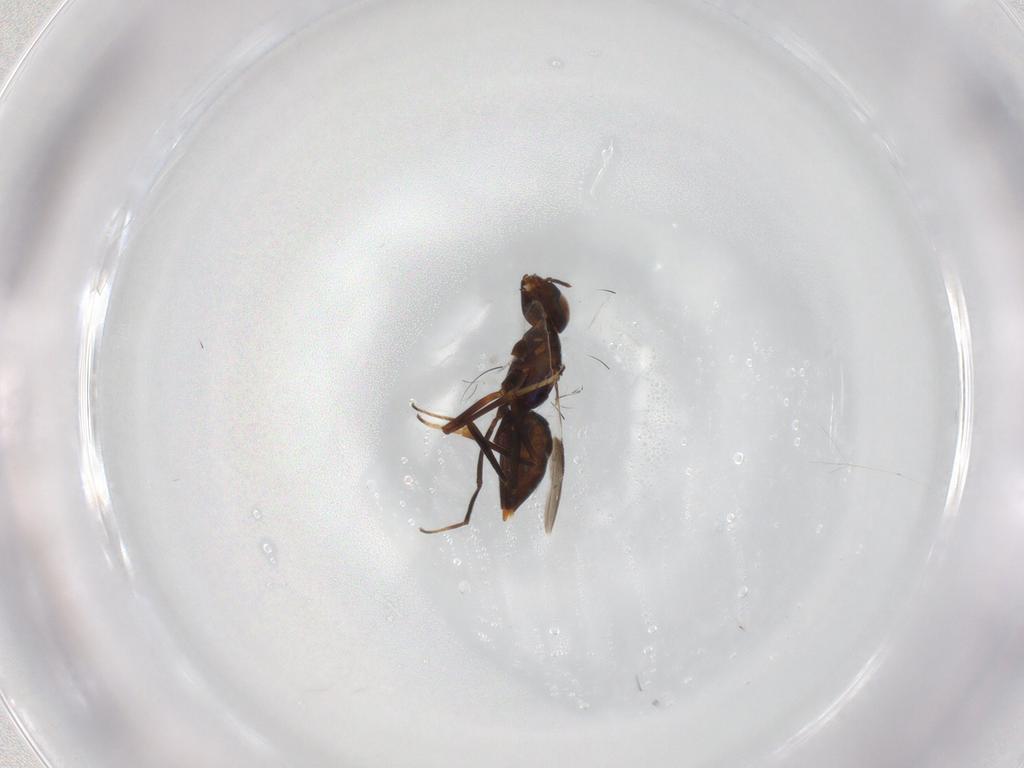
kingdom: Animalia
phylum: Arthropoda
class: Insecta
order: Hymenoptera
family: Encyrtidae
